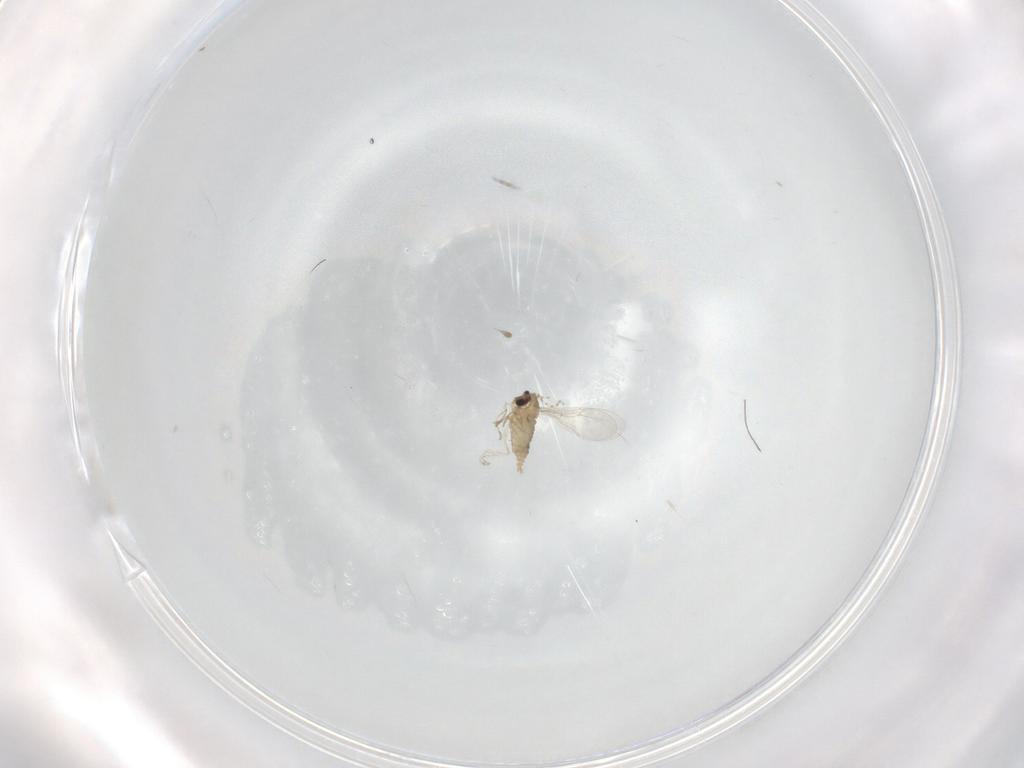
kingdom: Animalia
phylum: Arthropoda
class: Insecta
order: Diptera
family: Cecidomyiidae
